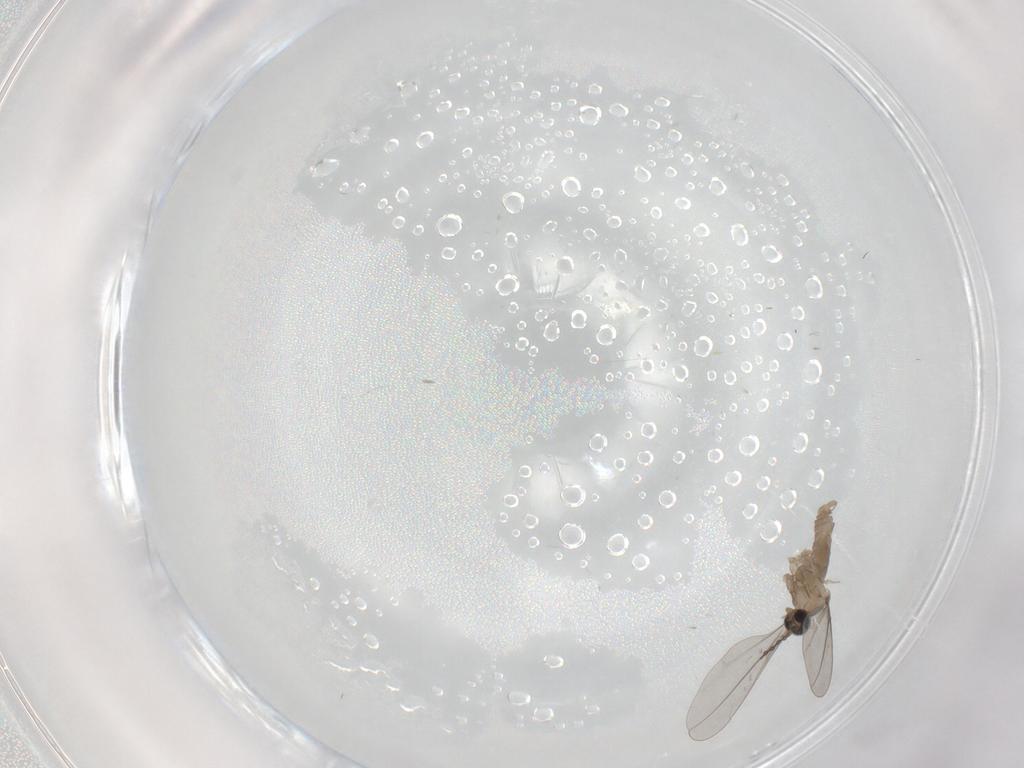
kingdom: Animalia
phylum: Arthropoda
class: Insecta
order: Diptera
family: Cecidomyiidae
